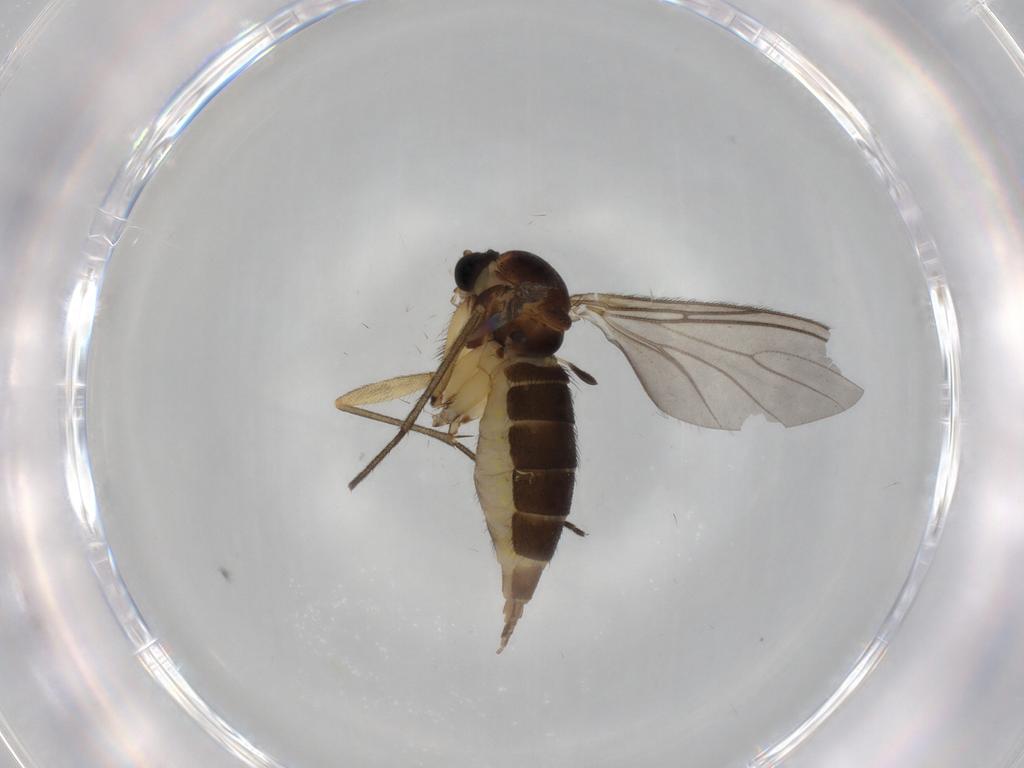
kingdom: Animalia
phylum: Arthropoda
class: Insecta
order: Diptera
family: Sciaridae
